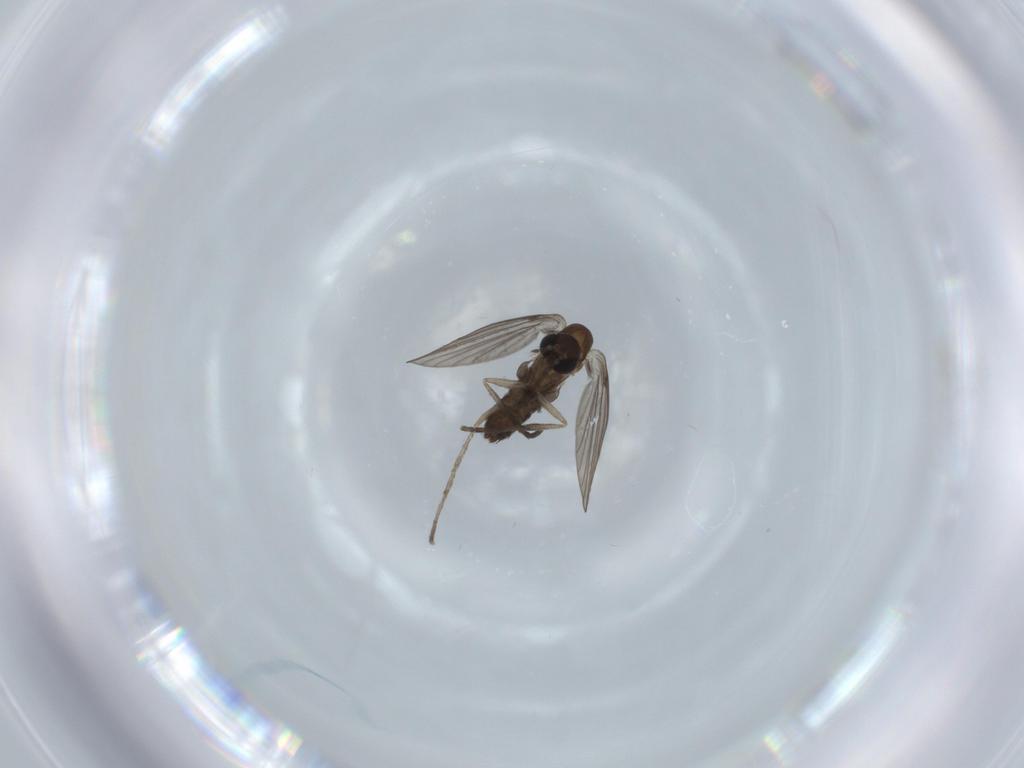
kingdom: Animalia
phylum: Arthropoda
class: Insecta
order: Diptera
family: Psychodidae
